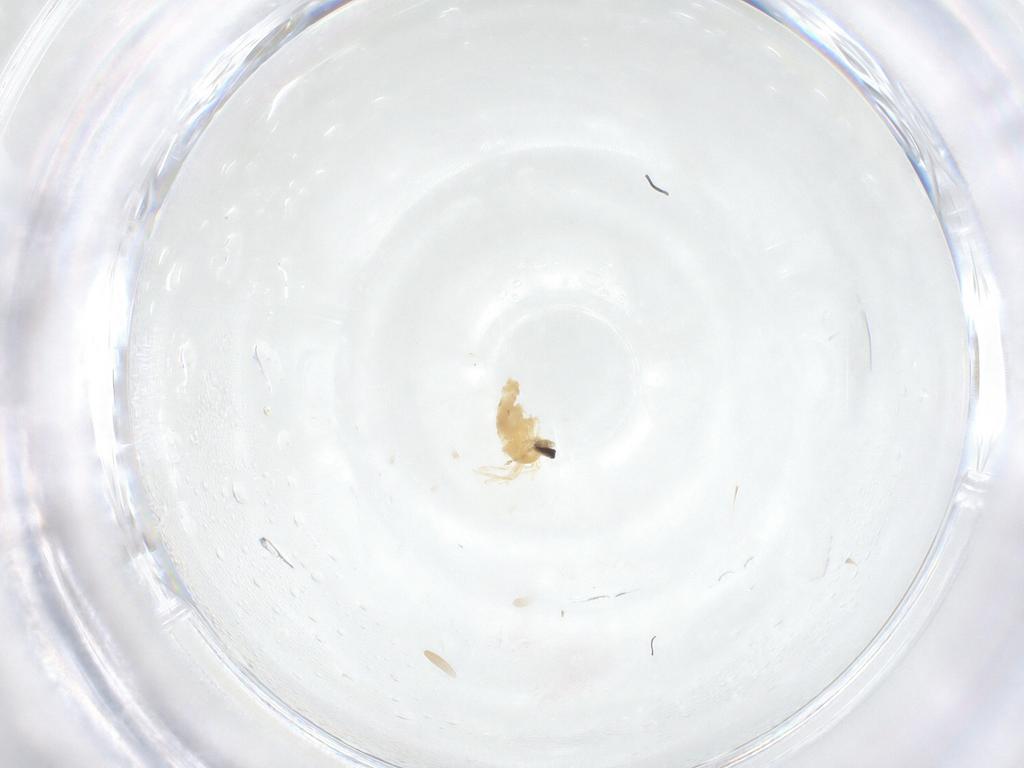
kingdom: Animalia
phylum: Arthropoda
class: Insecta
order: Diptera
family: Cecidomyiidae
